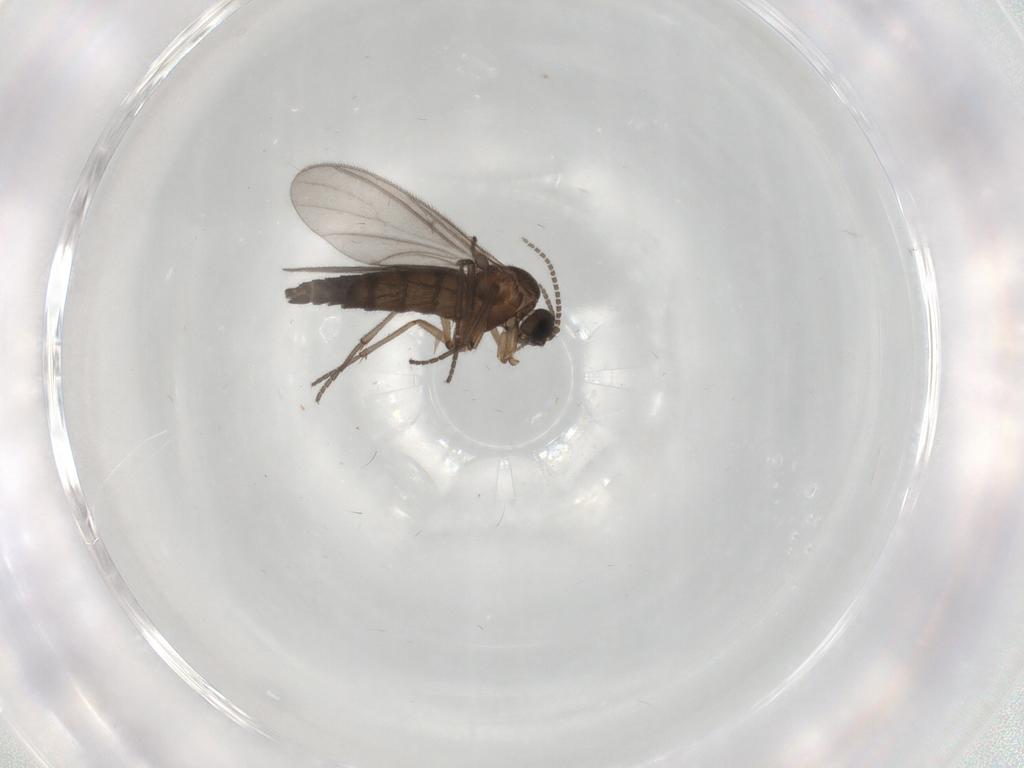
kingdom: Animalia
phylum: Arthropoda
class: Insecta
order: Diptera
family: Sciaridae
